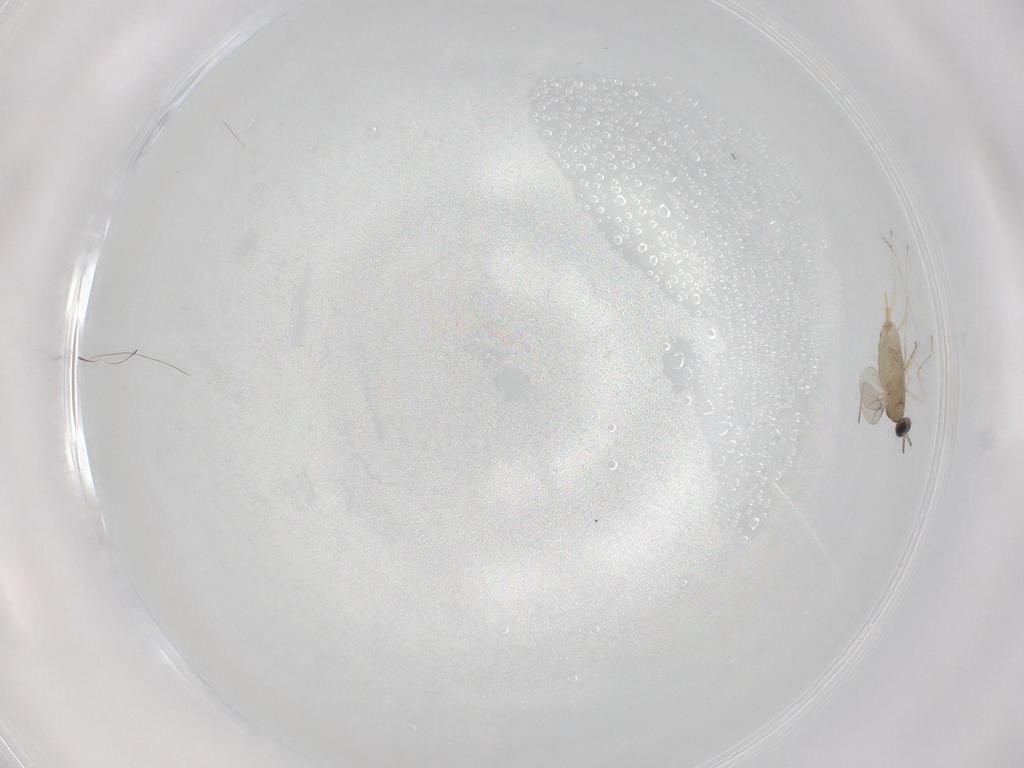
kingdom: Animalia
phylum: Arthropoda
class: Insecta
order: Diptera
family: Cecidomyiidae
